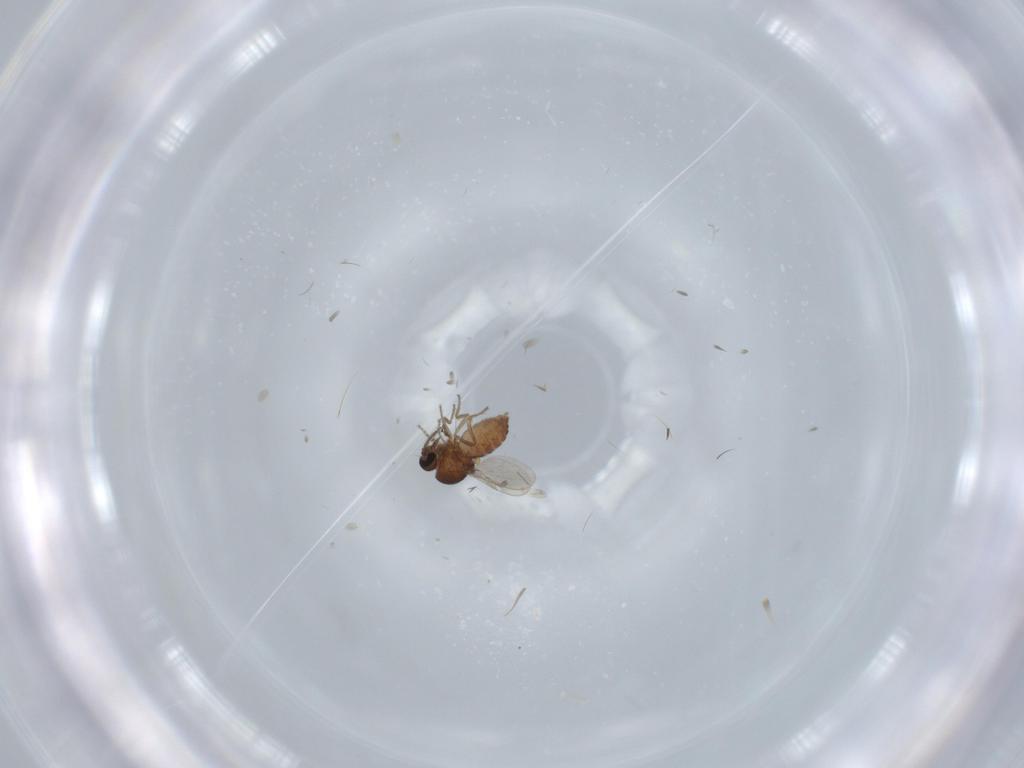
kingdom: Animalia
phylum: Arthropoda
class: Insecta
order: Diptera
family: Ceratopogonidae
